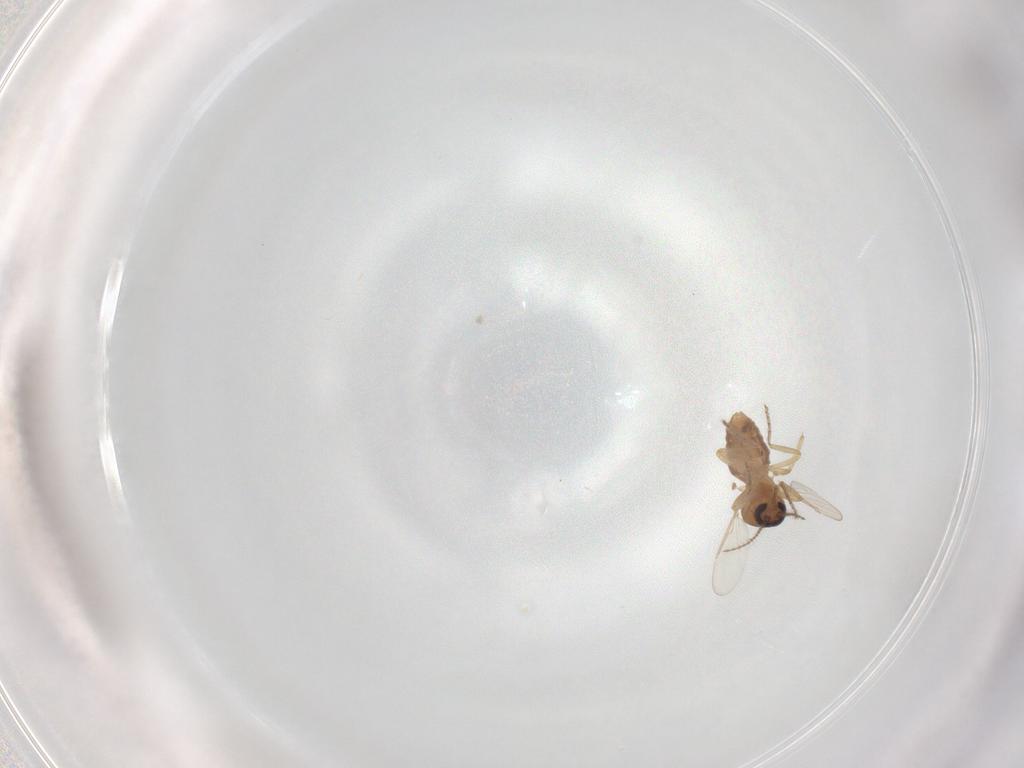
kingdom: Animalia
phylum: Arthropoda
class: Insecta
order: Diptera
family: Ceratopogonidae
